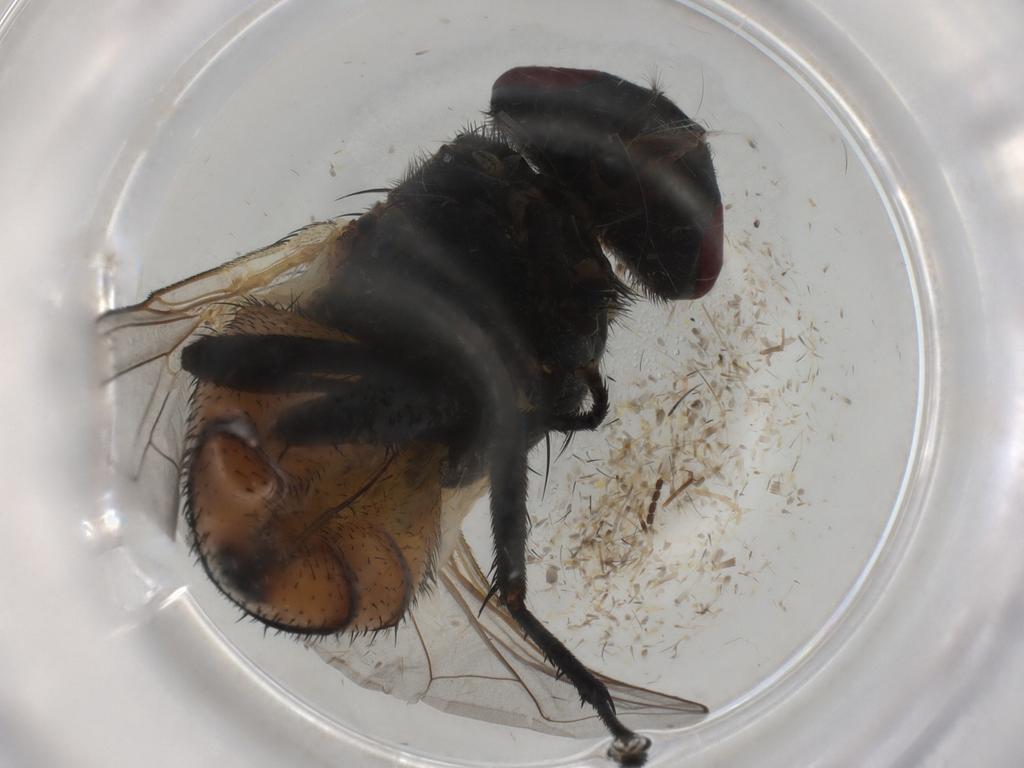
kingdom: Animalia
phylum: Arthropoda
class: Insecta
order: Diptera
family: Muscidae
